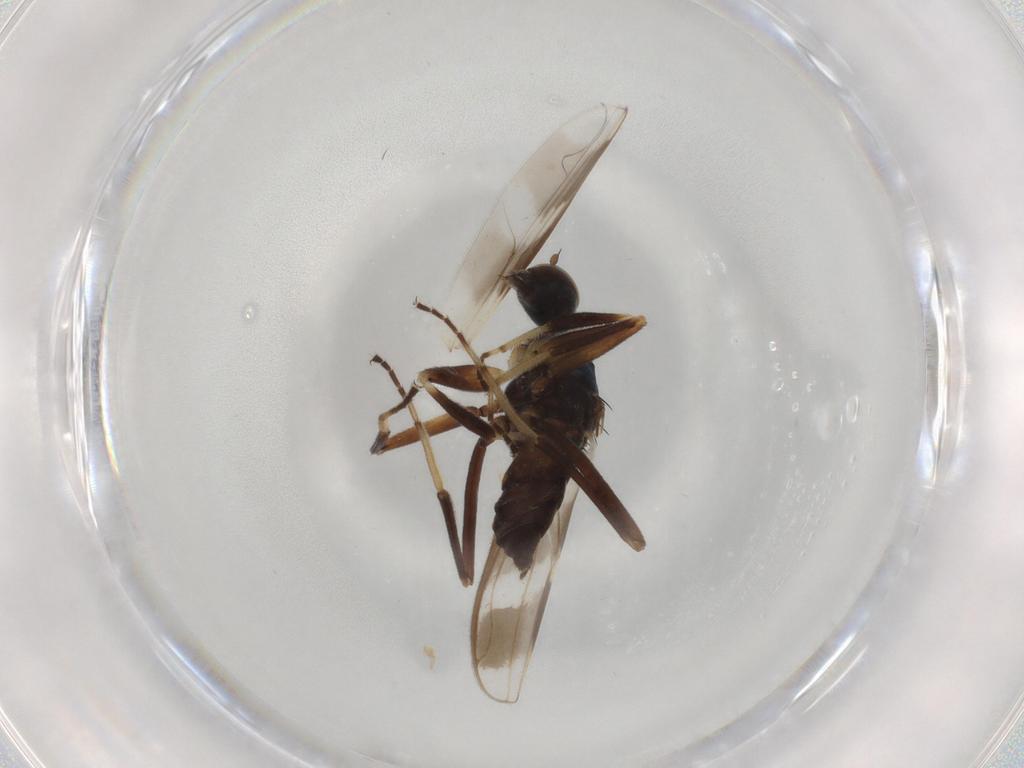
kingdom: Animalia
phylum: Arthropoda
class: Insecta
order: Diptera
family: Hybotidae
